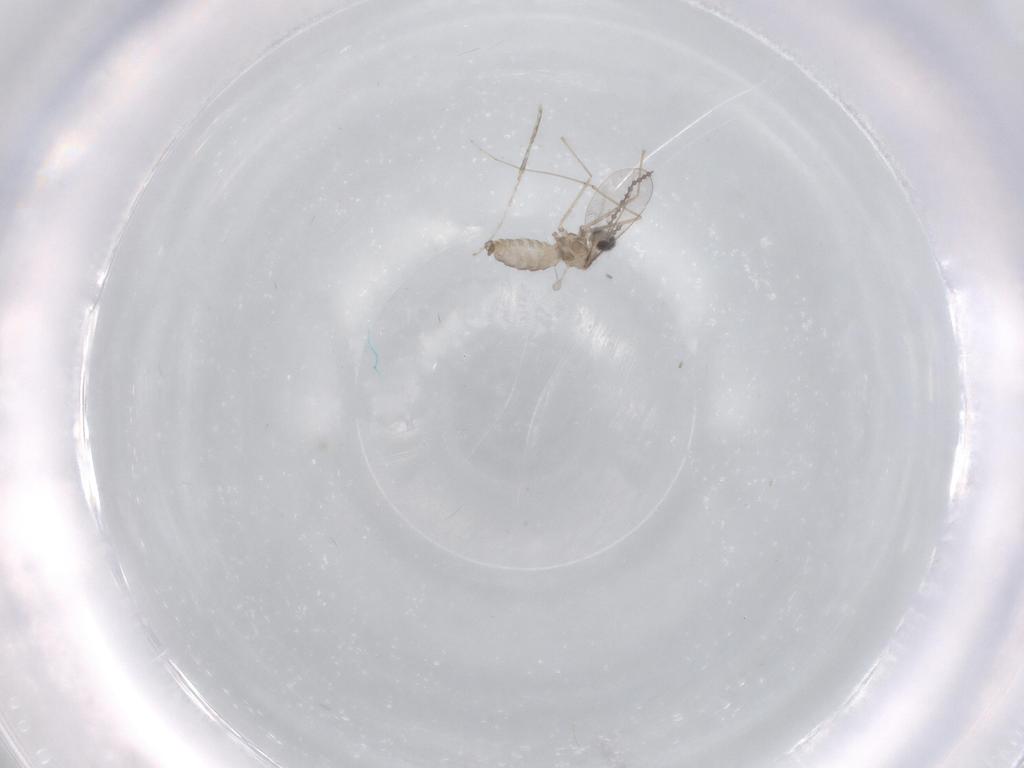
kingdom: Animalia
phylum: Arthropoda
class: Insecta
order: Diptera
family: Cecidomyiidae
